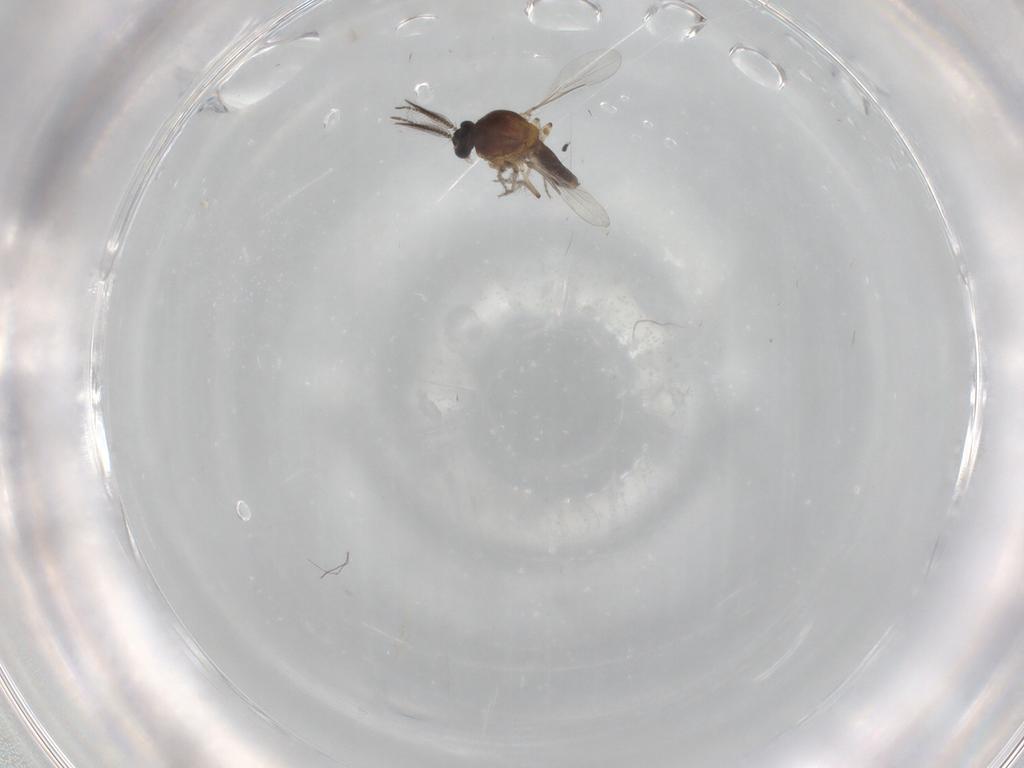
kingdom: Animalia
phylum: Arthropoda
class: Insecta
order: Diptera
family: Ceratopogonidae
